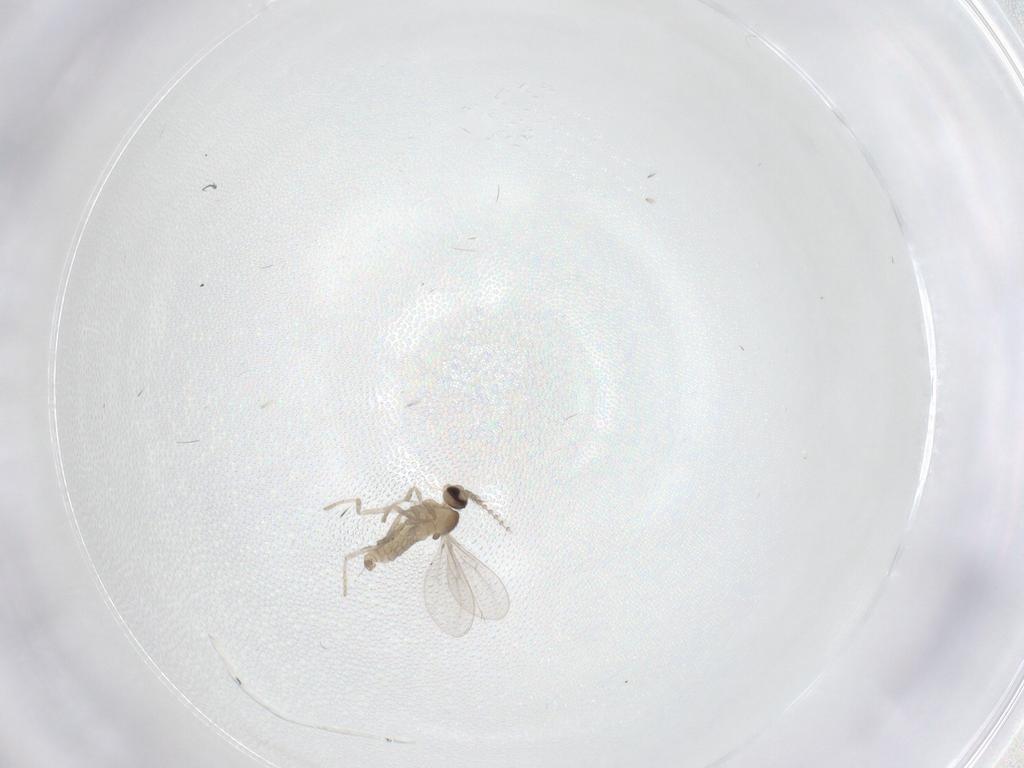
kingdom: Animalia
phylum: Arthropoda
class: Insecta
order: Diptera
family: Cecidomyiidae
